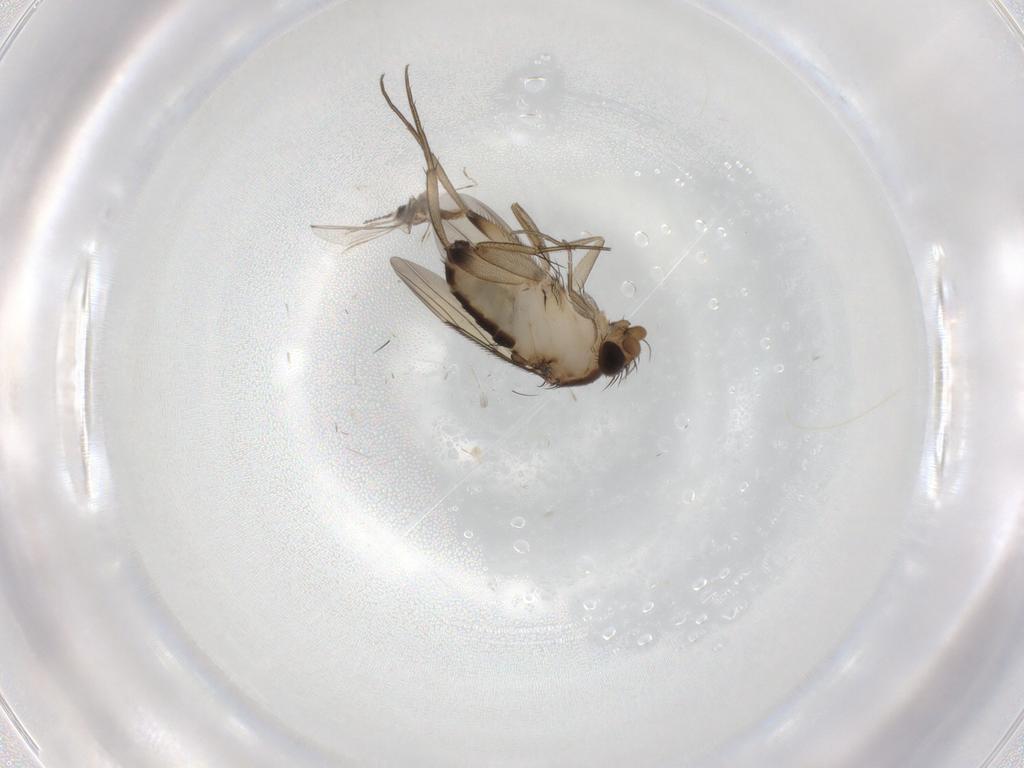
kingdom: Animalia
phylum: Arthropoda
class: Insecta
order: Diptera
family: Phoridae
